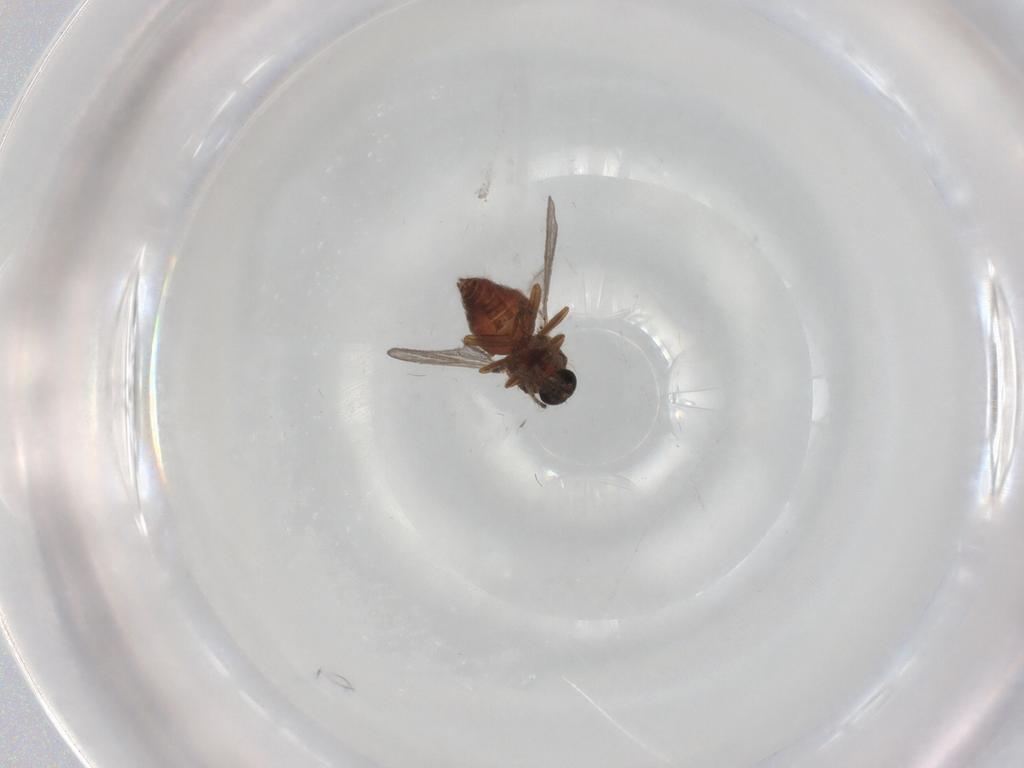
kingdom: Animalia
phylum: Arthropoda
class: Insecta
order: Diptera
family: Ceratopogonidae
